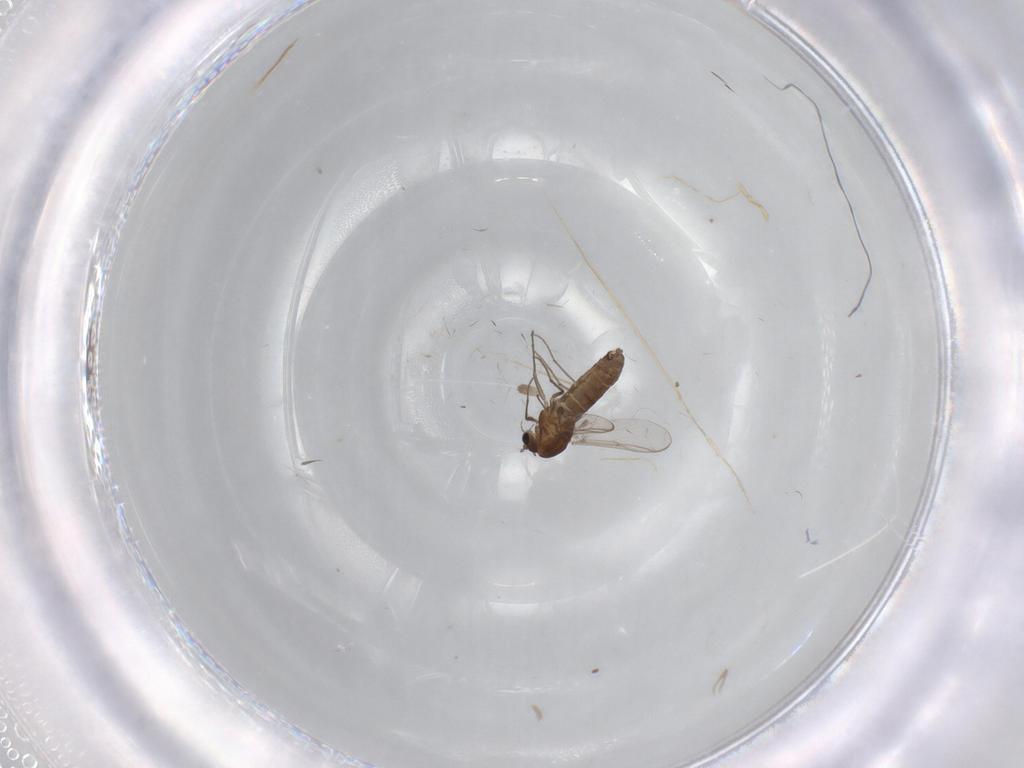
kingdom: Animalia
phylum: Arthropoda
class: Insecta
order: Diptera
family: Chironomidae
